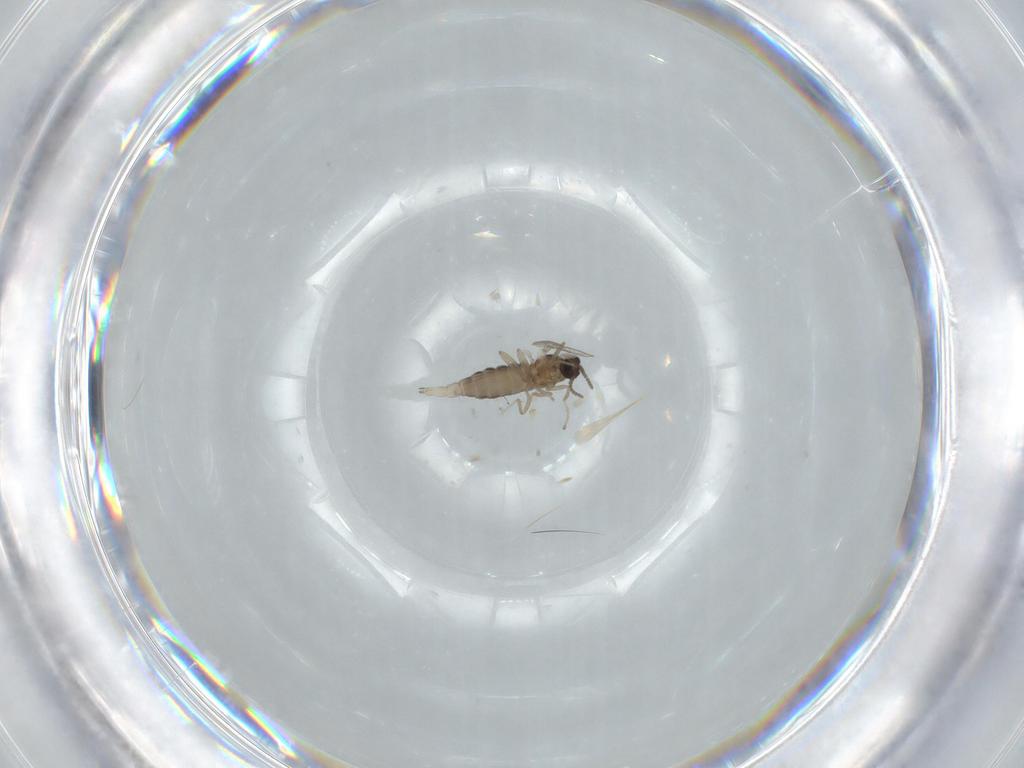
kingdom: Animalia
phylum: Arthropoda
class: Insecta
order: Diptera
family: Cecidomyiidae
